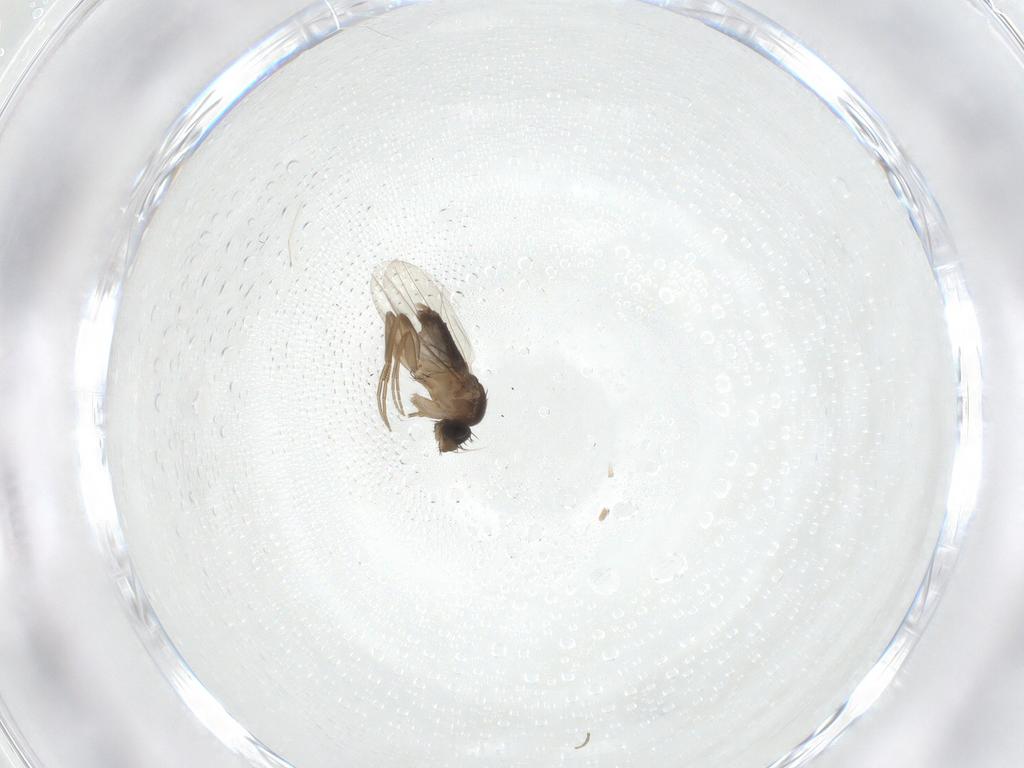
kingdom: Animalia
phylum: Arthropoda
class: Insecta
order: Diptera
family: Phoridae
